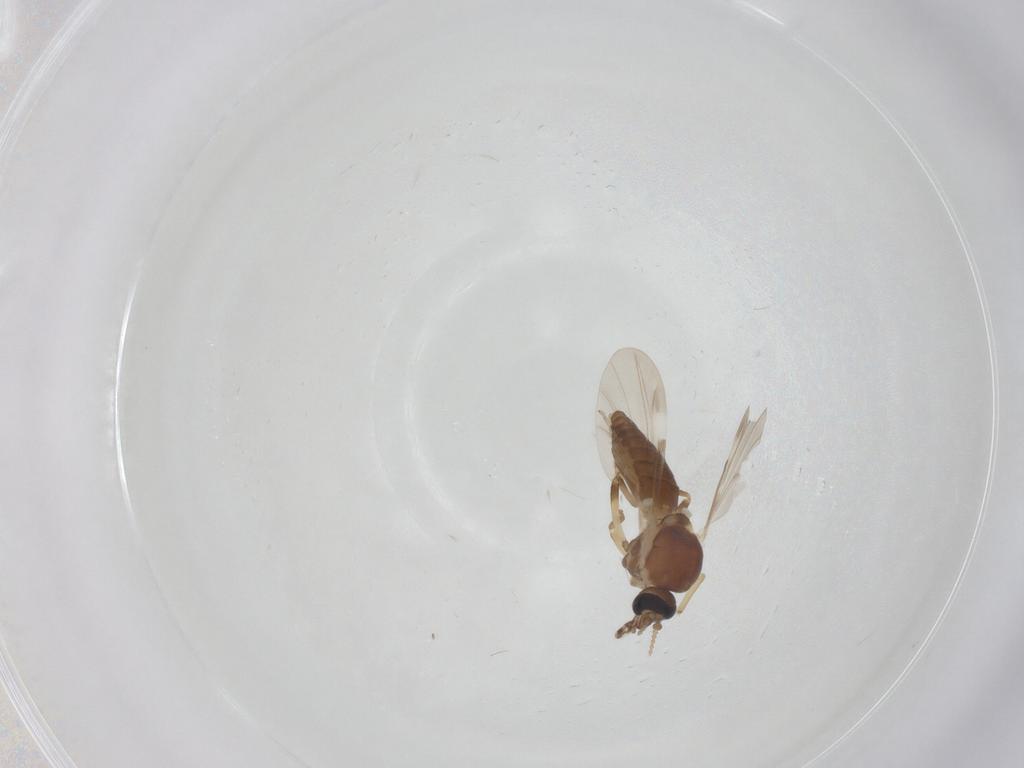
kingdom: Animalia
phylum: Arthropoda
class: Insecta
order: Diptera
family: Ceratopogonidae
